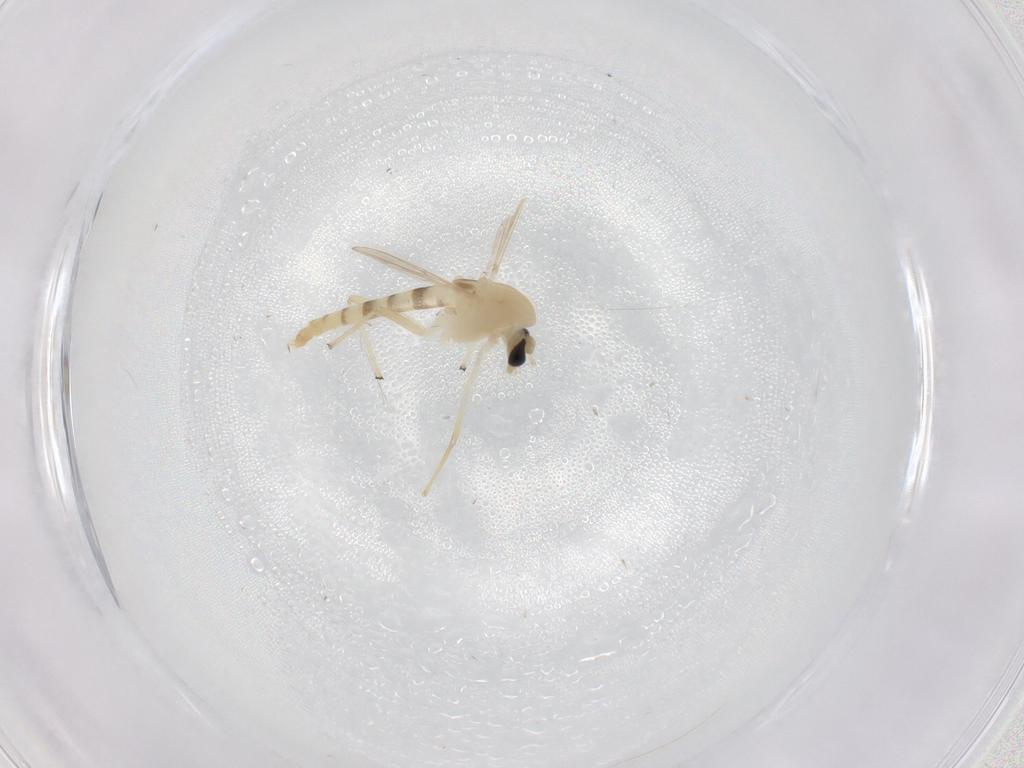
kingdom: Animalia
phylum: Arthropoda
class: Insecta
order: Diptera
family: Chironomidae
